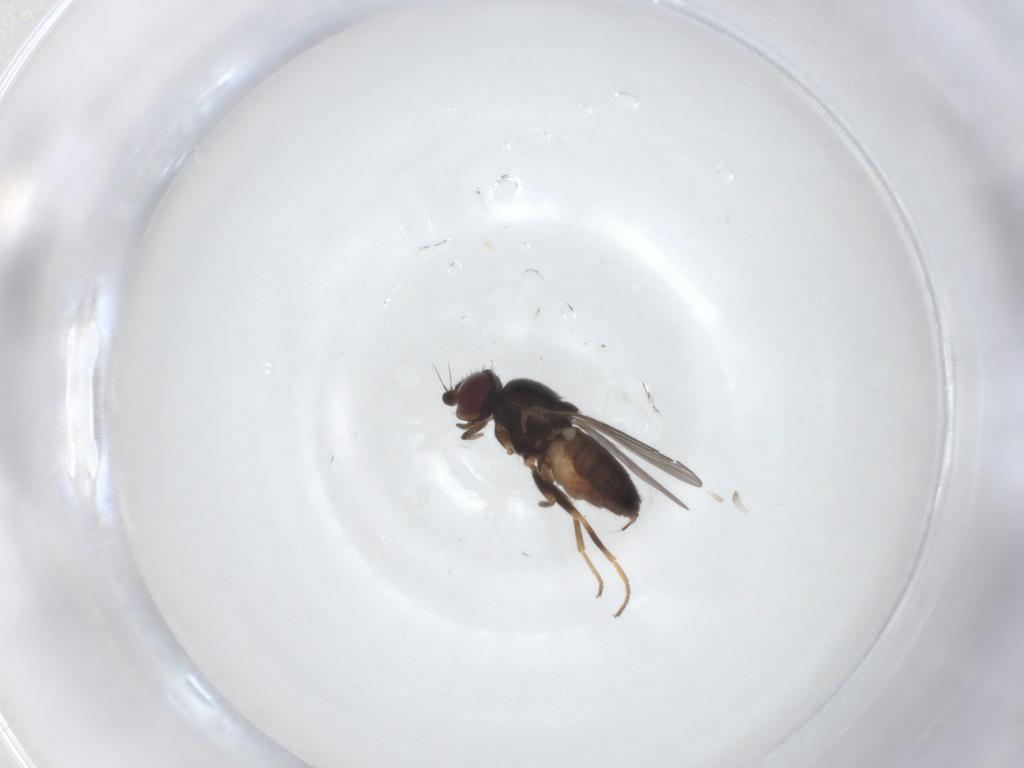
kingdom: Animalia
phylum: Arthropoda
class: Insecta
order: Diptera
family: Chloropidae
